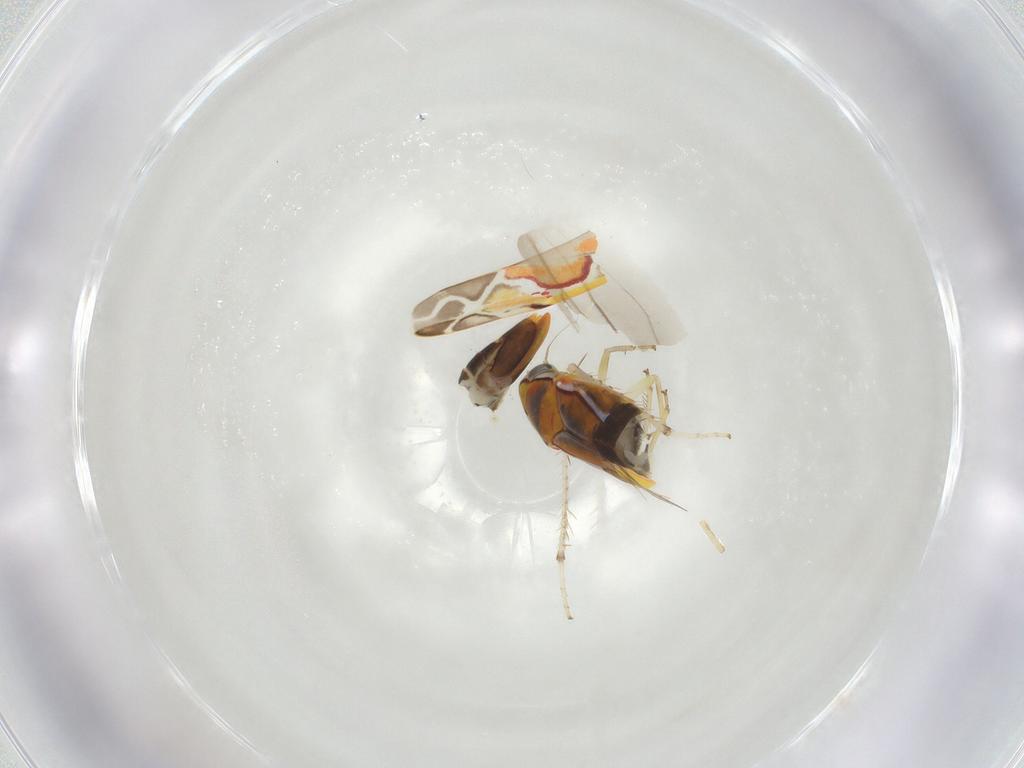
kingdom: Animalia
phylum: Arthropoda
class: Insecta
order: Hemiptera
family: Cicadellidae
